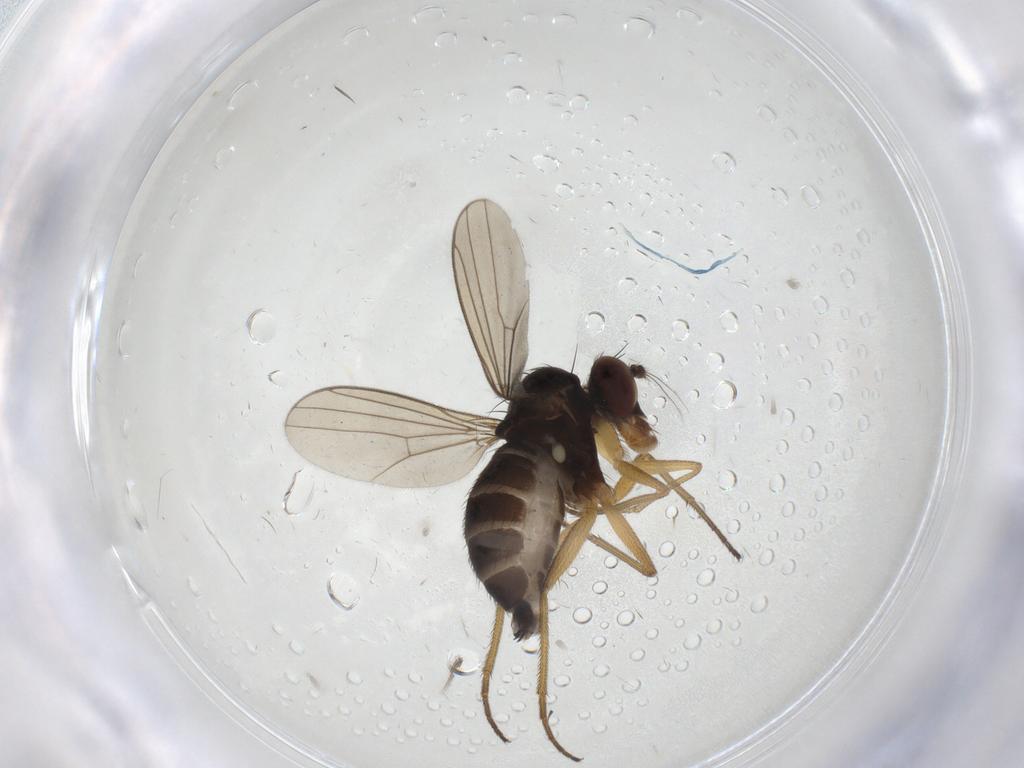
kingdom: Animalia
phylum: Arthropoda
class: Insecta
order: Diptera
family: Dolichopodidae
